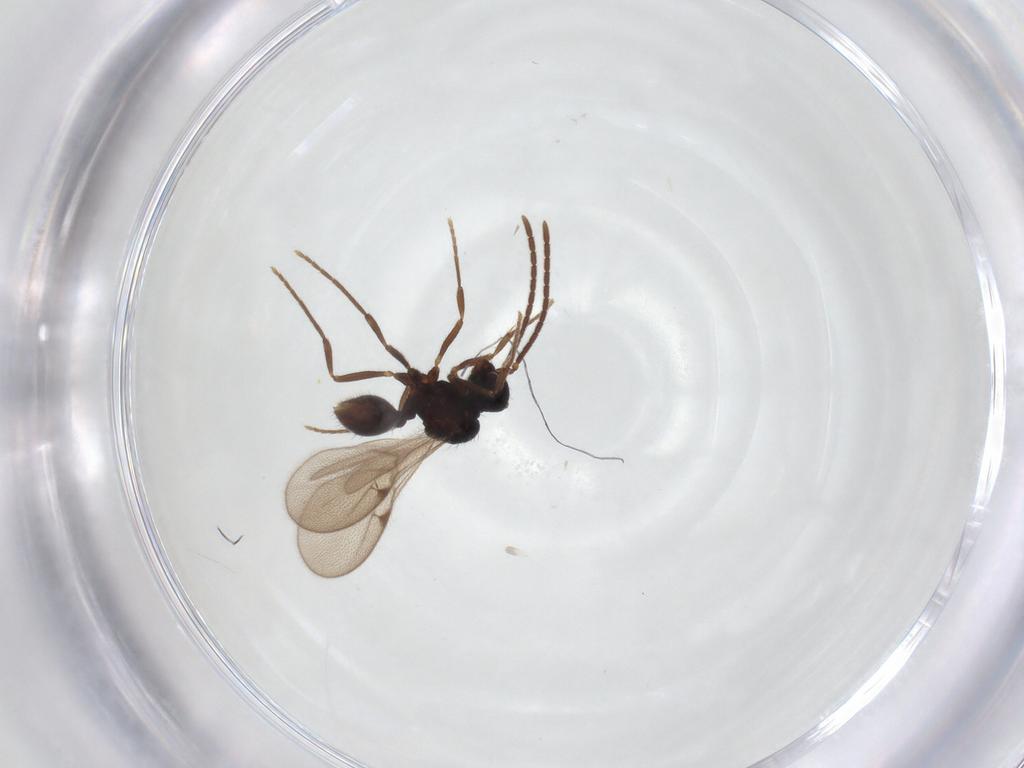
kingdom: Animalia
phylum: Arthropoda
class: Insecta
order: Hymenoptera
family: Formicidae
